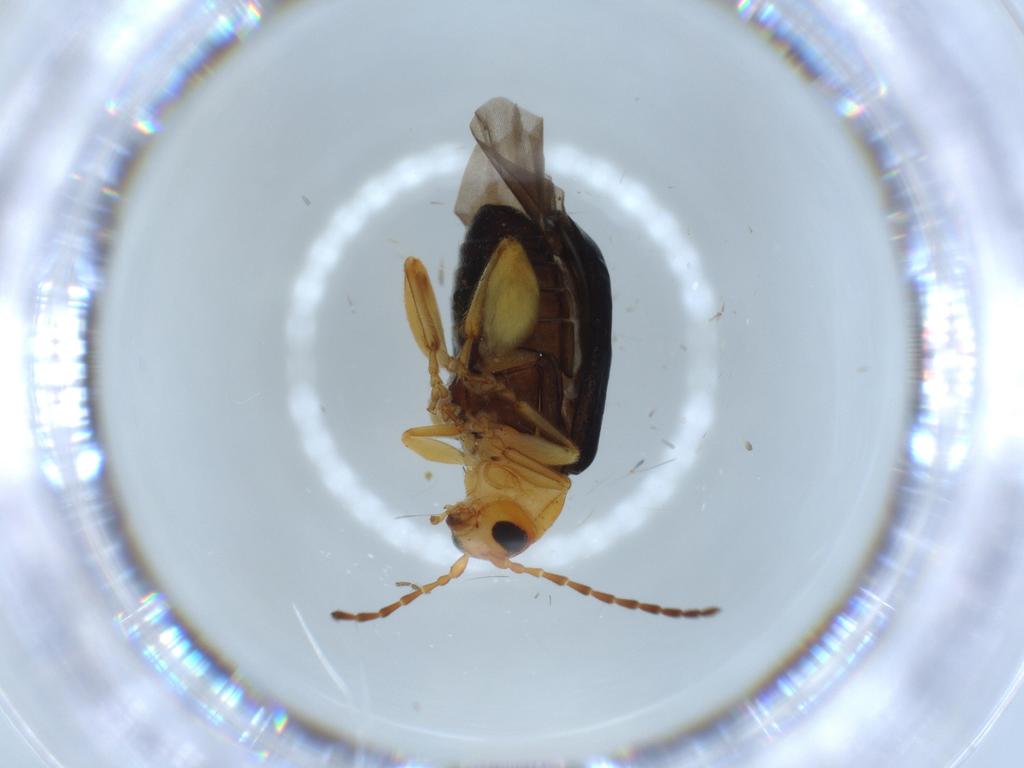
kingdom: Animalia
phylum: Arthropoda
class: Insecta
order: Coleoptera
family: Chrysomelidae
